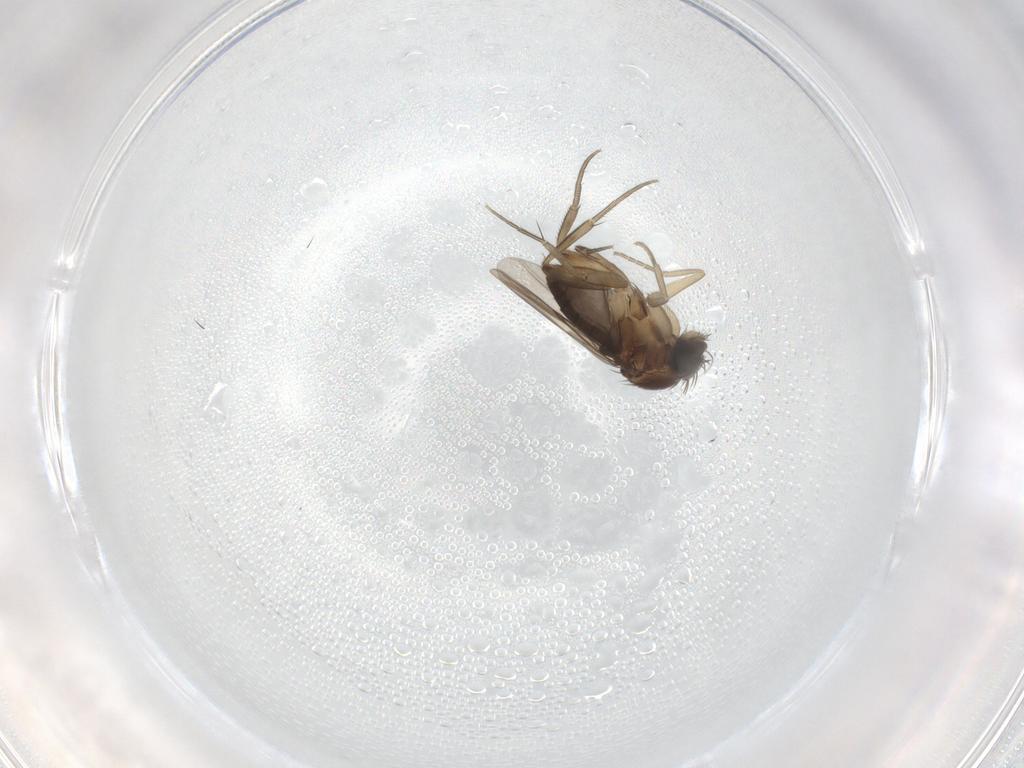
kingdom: Animalia
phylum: Arthropoda
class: Insecta
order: Diptera
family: Phoridae
